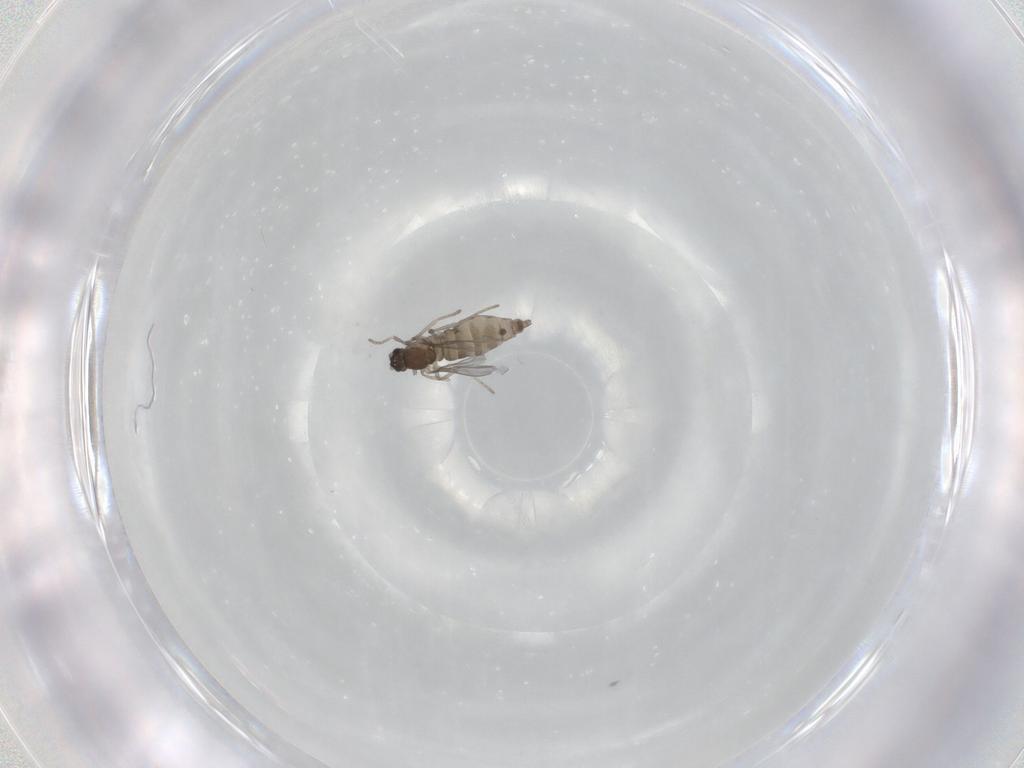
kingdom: Animalia
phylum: Arthropoda
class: Insecta
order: Diptera
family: Cecidomyiidae
